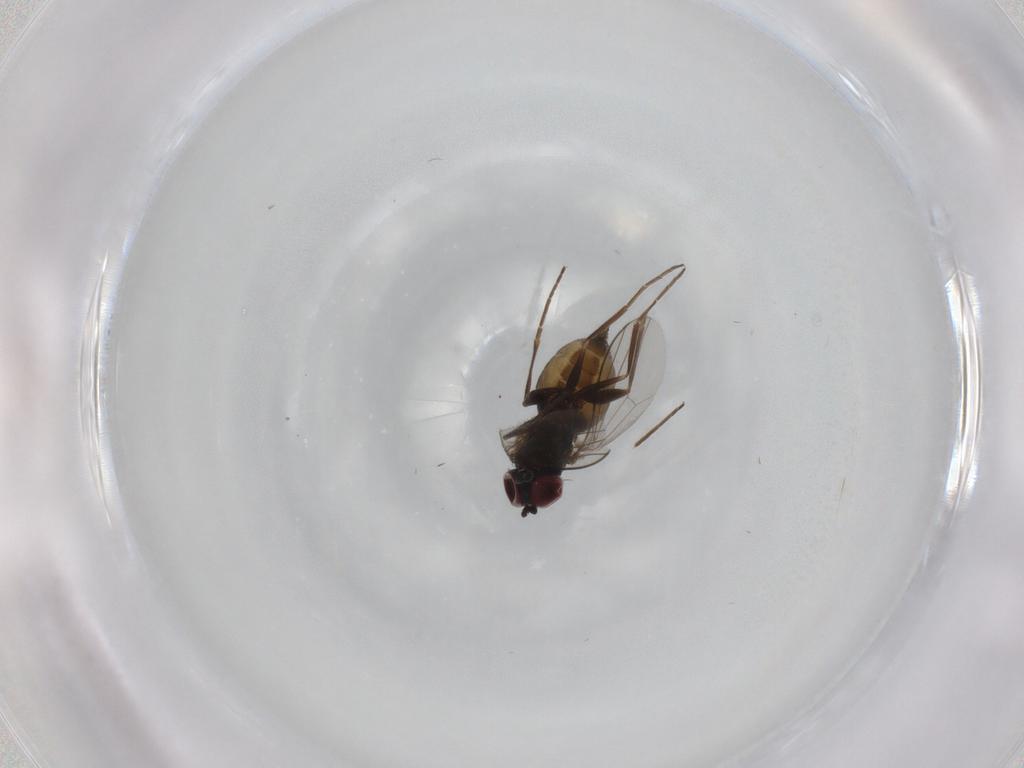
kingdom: Animalia
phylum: Arthropoda
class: Insecta
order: Diptera
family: Dolichopodidae
